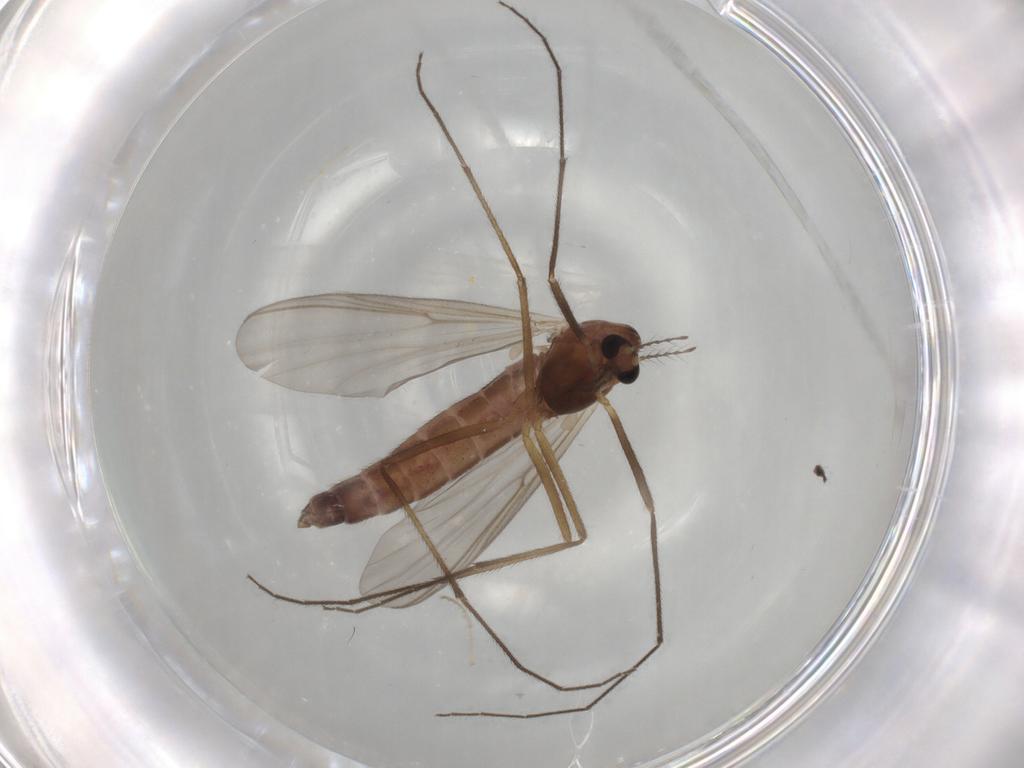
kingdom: Animalia
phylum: Arthropoda
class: Insecta
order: Diptera
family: Chironomidae
